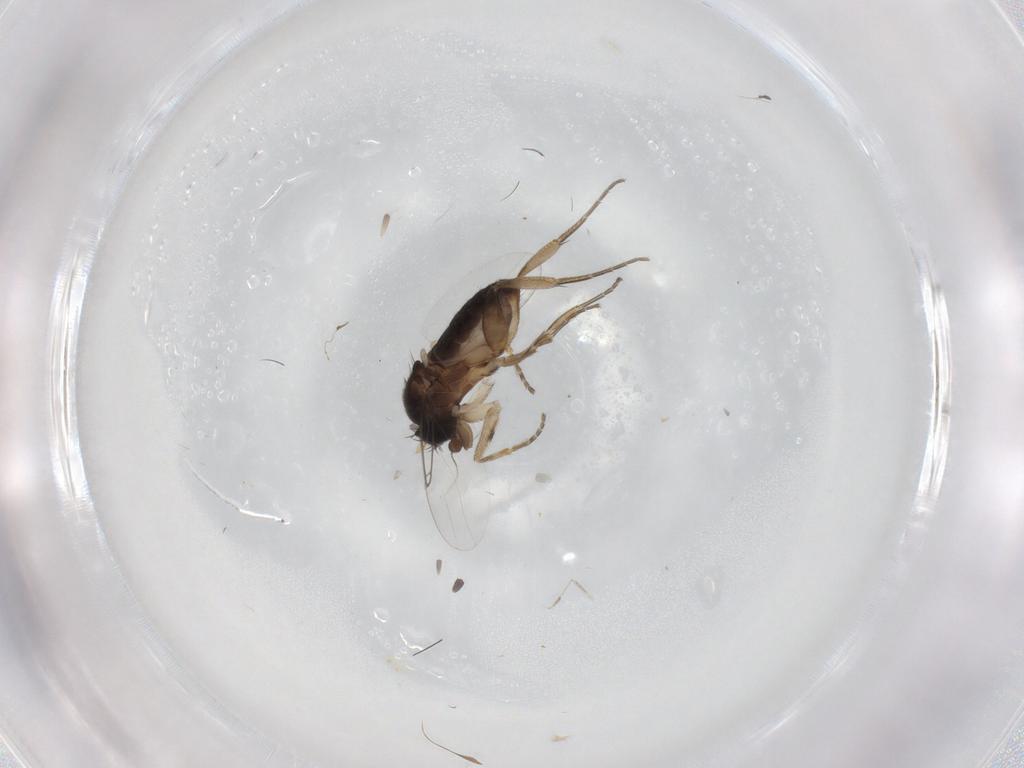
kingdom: Animalia
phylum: Arthropoda
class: Insecta
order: Diptera
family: Phoridae
